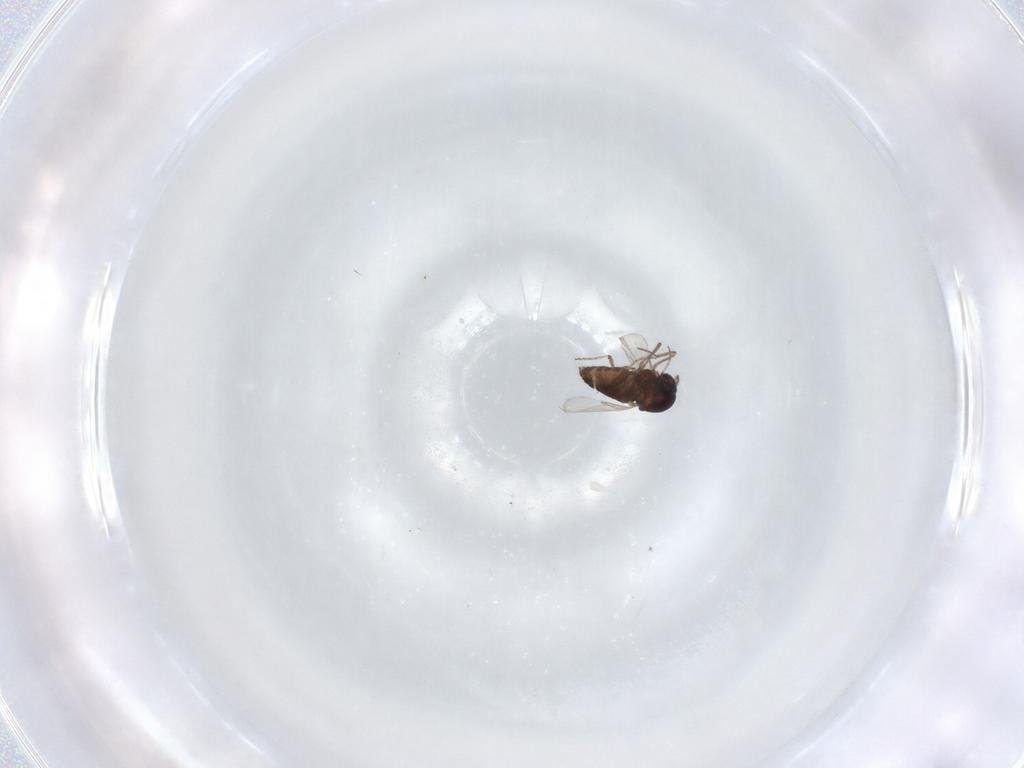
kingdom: Animalia
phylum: Arthropoda
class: Insecta
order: Diptera
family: Ceratopogonidae
